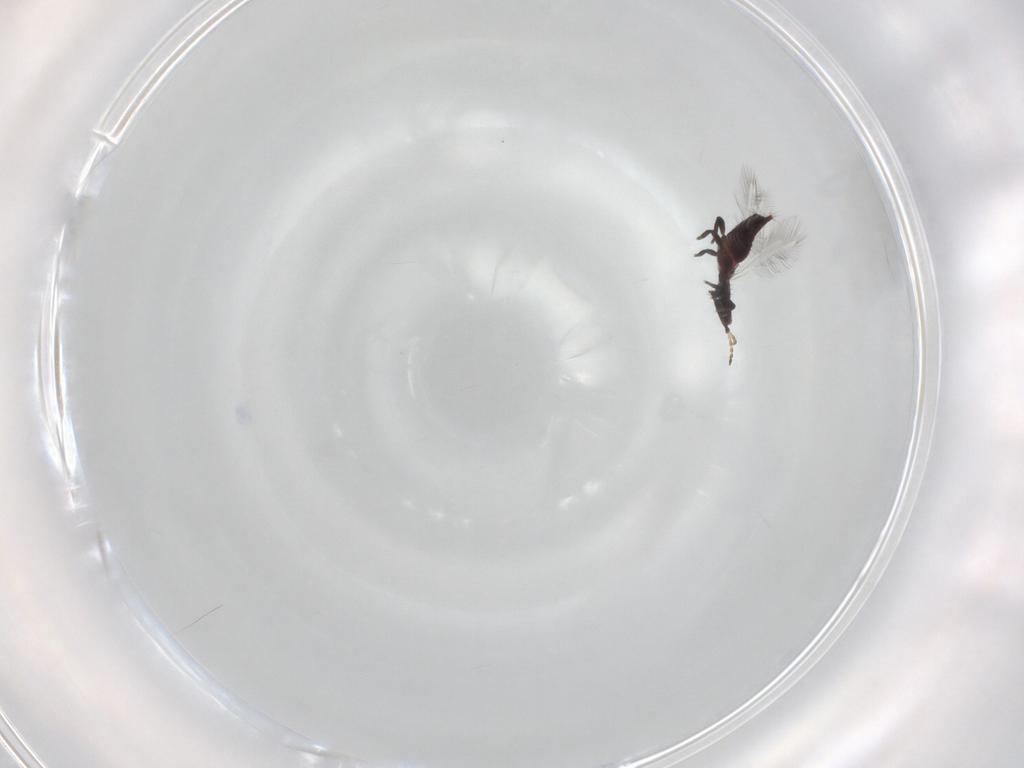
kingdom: Animalia
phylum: Arthropoda
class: Insecta
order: Thysanoptera
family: Phlaeothripidae
